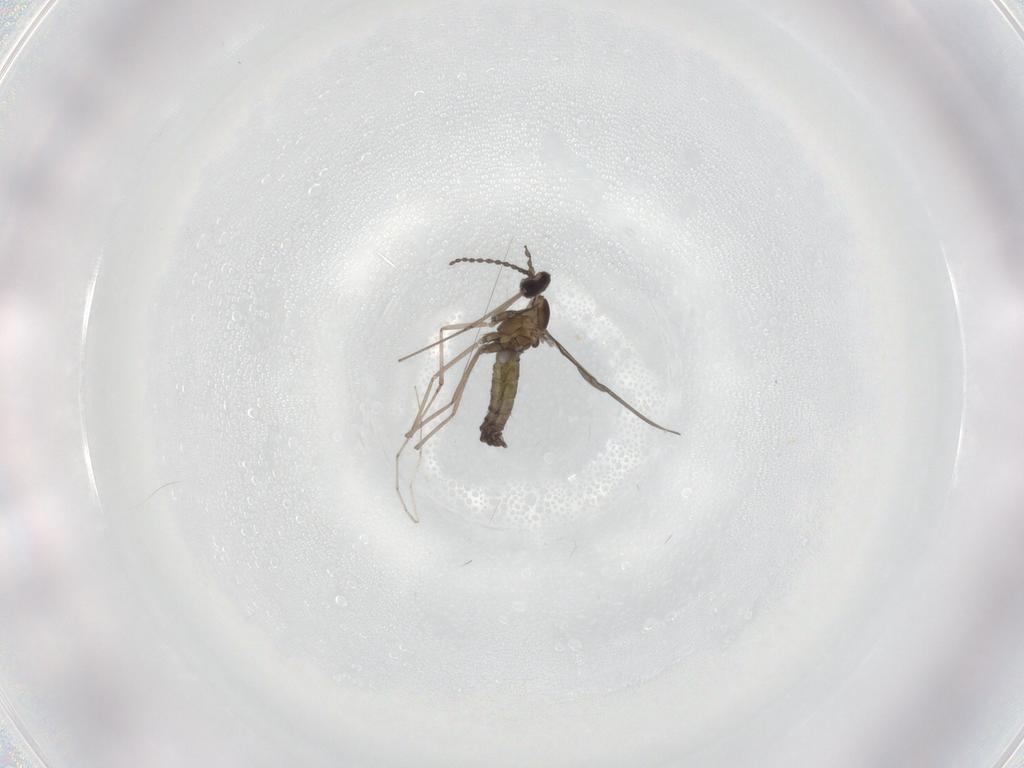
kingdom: Animalia
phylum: Arthropoda
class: Insecta
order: Diptera
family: Cecidomyiidae
